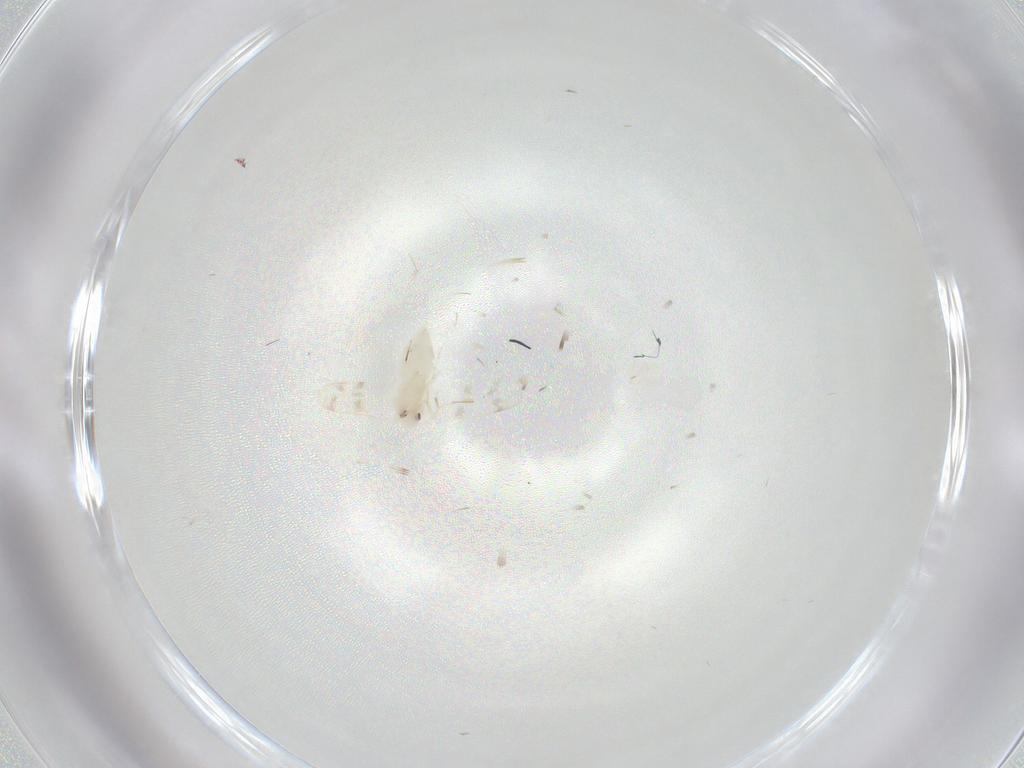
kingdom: Animalia
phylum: Arthropoda
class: Insecta
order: Hemiptera
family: Aleyrodidae
